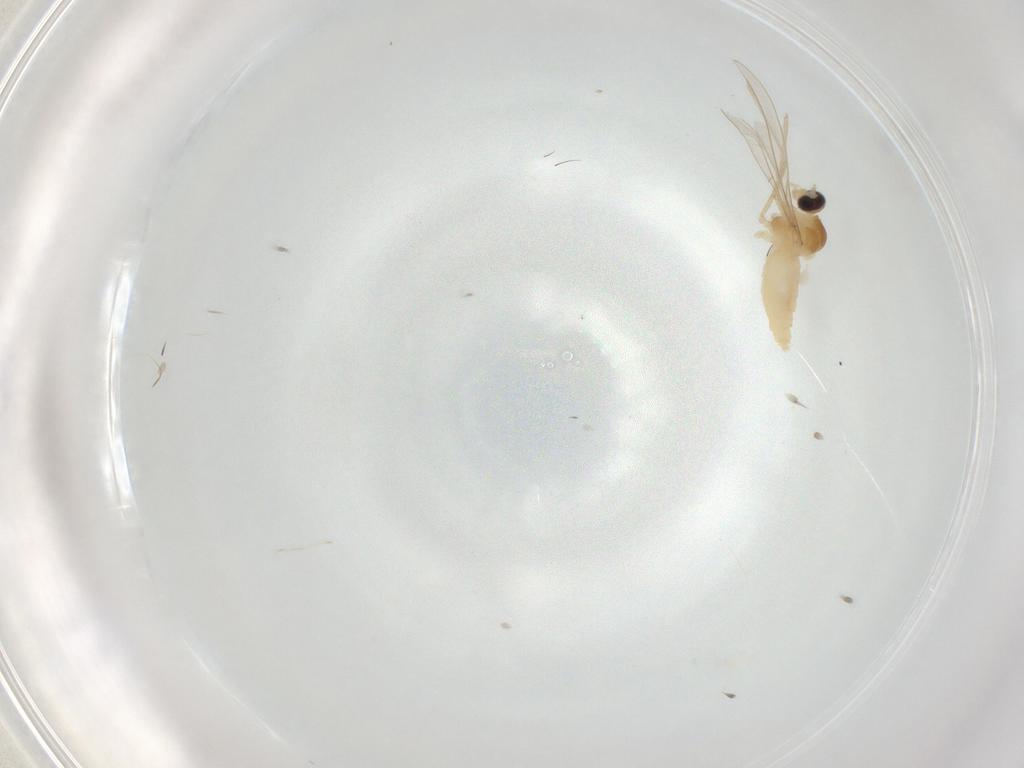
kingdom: Animalia
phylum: Arthropoda
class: Insecta
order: Diptera
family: Cecidomyiidae
